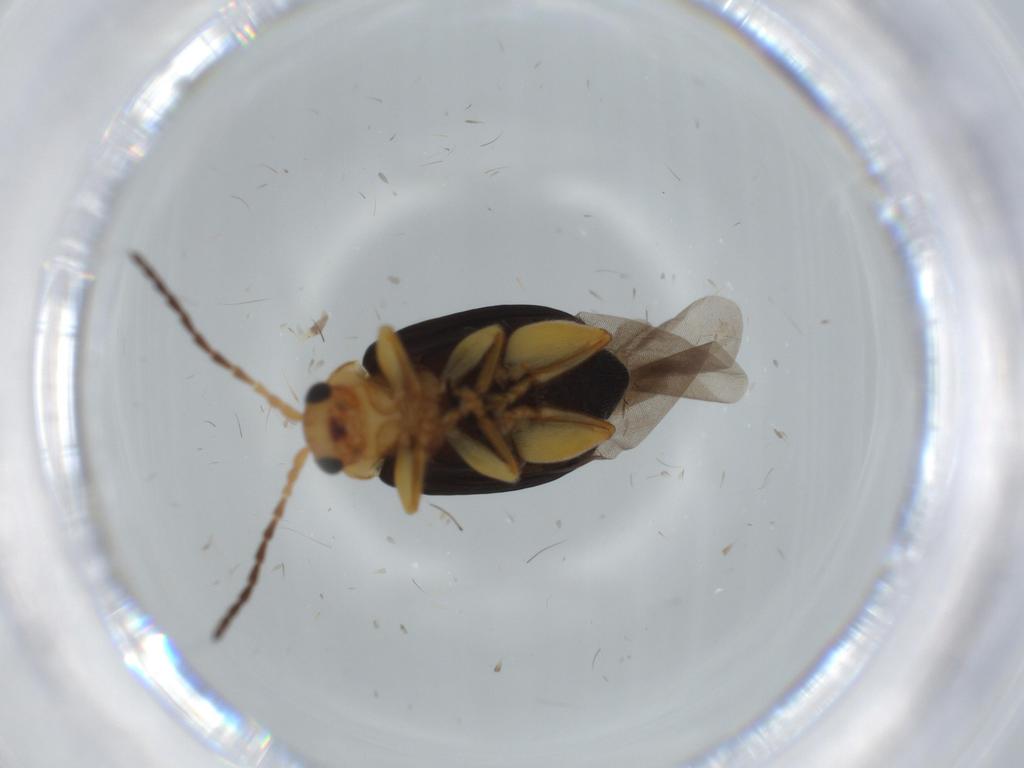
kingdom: Animalia
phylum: Arthropoda
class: Insecta
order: Coleoptera
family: Chrysomelidae
